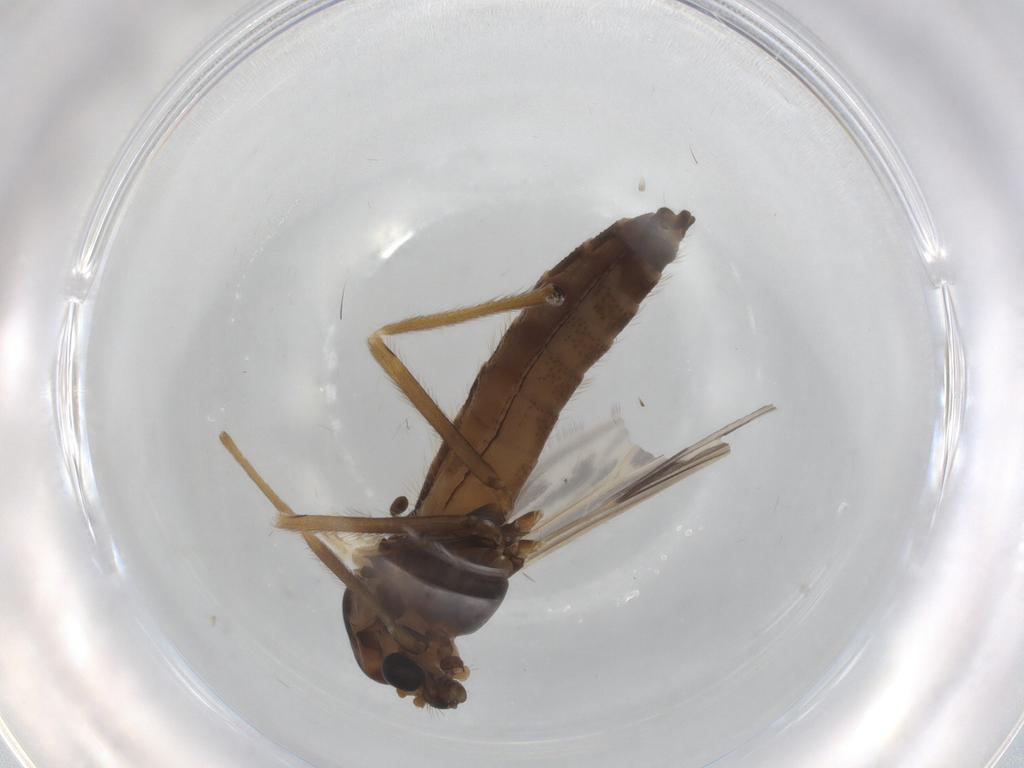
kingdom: Animalia
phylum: Arthropoda
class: Insecta
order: Diptera
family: Chironomidae
